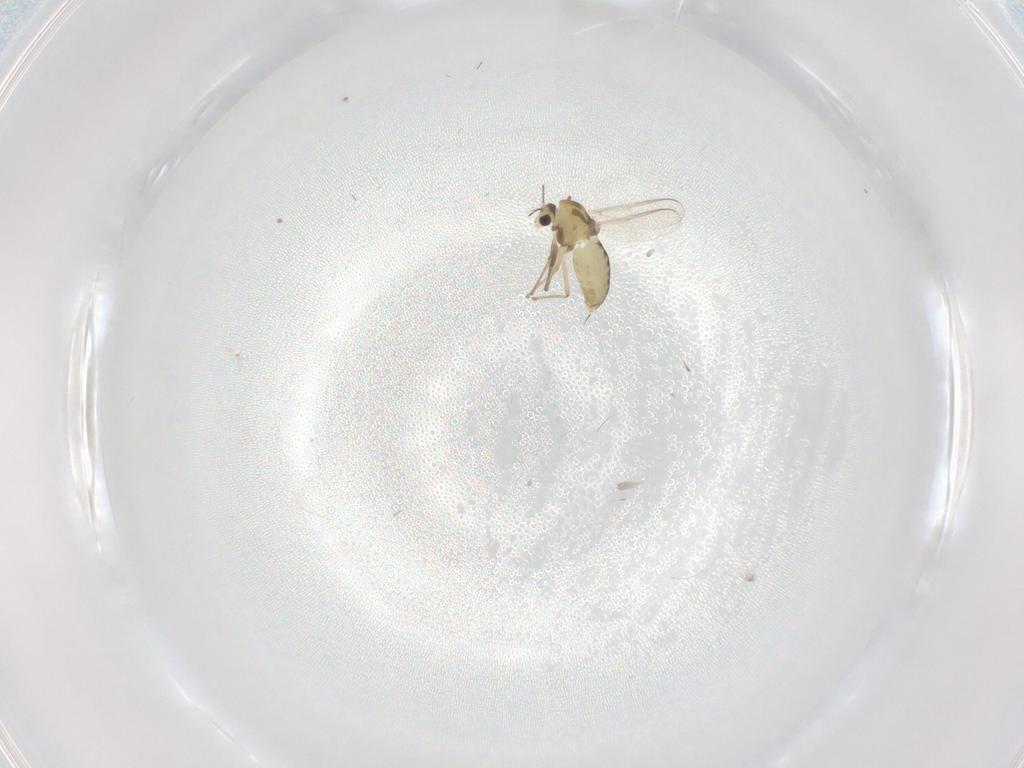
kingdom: Animalia
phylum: Arthropoda
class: Insecta
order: Diptera
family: Chironomidae
